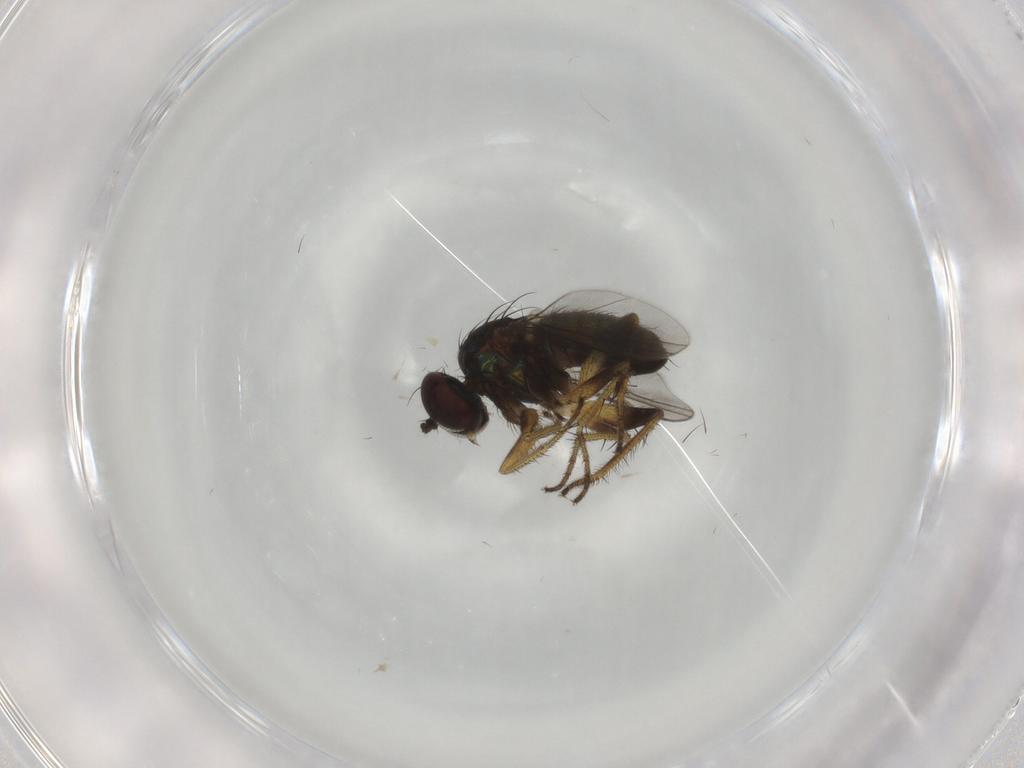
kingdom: Animalia
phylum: Arthropoda
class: Insecta
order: Diptera
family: Dolichopodidae
